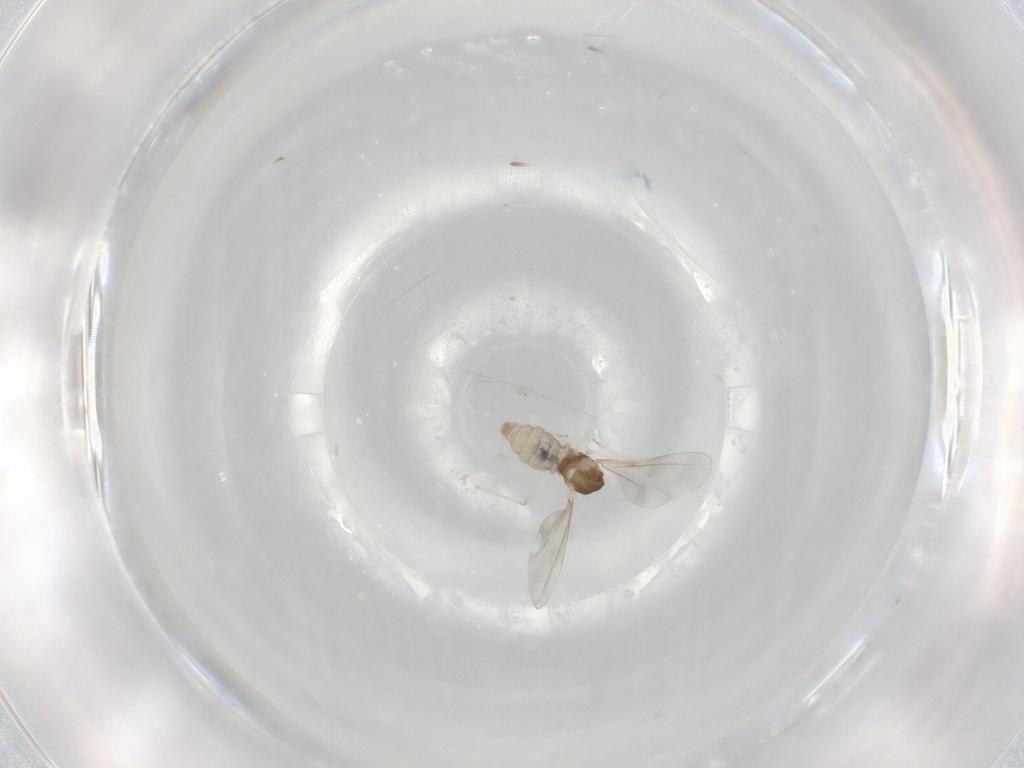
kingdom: Animalia
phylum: Arthropoda
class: Insecta
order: Diptera
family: Cecidomyiidae
